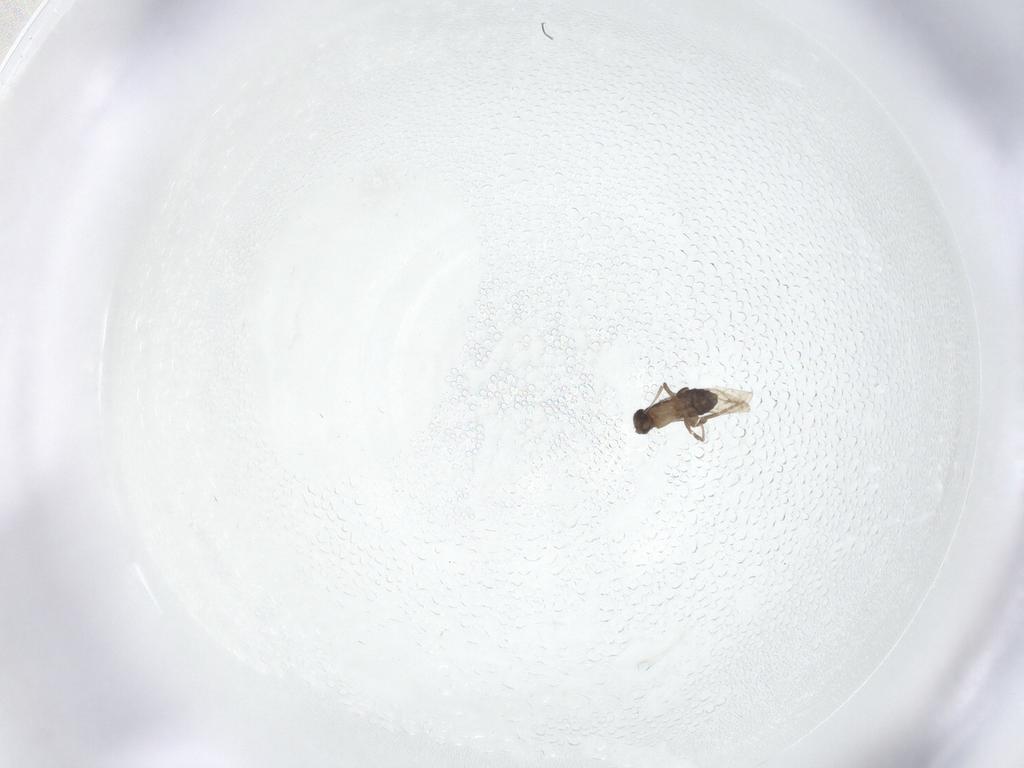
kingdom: Animalia
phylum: Arthropoda
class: Insecta
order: Diptera
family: Phoridae
